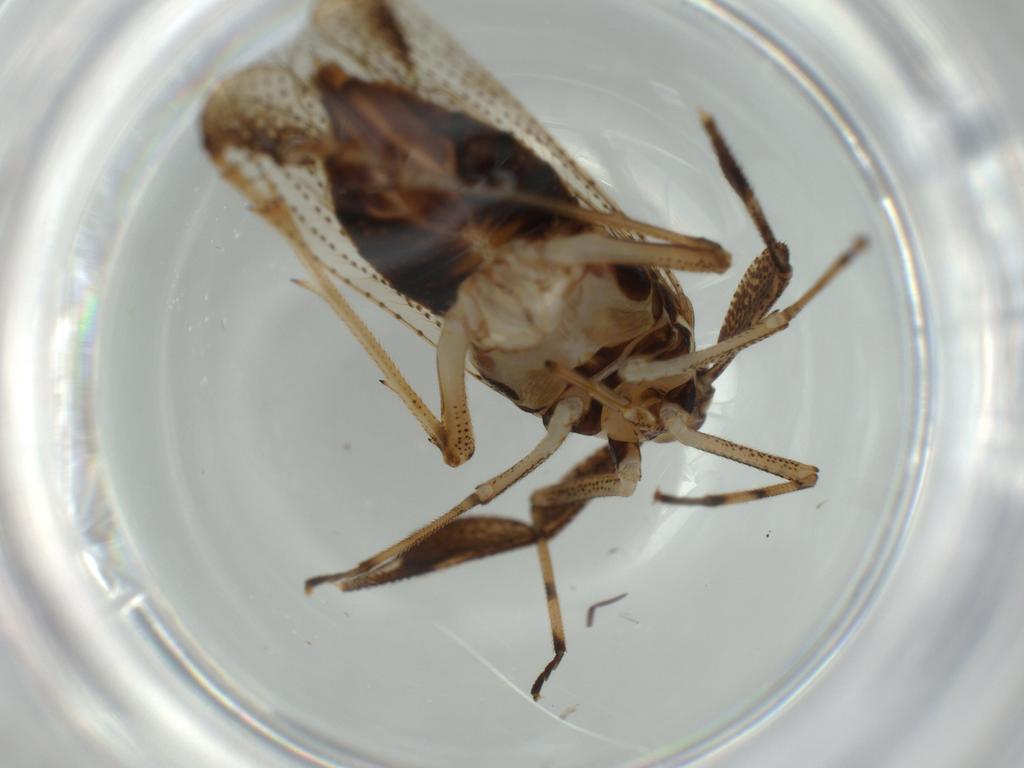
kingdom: Animalia
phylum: Arthropoda
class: Insecta
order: Hemiptera
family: Delphacidae
